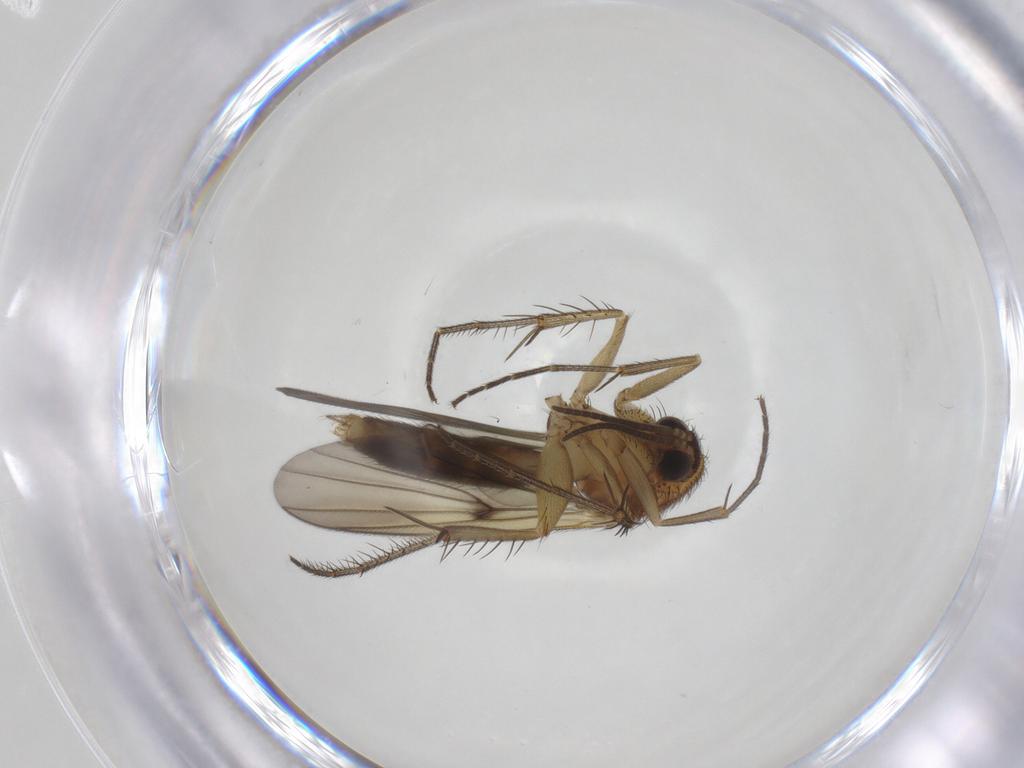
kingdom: Animalia
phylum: Arthropoda
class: Insecta
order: Diptera
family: Mycetophilidae
